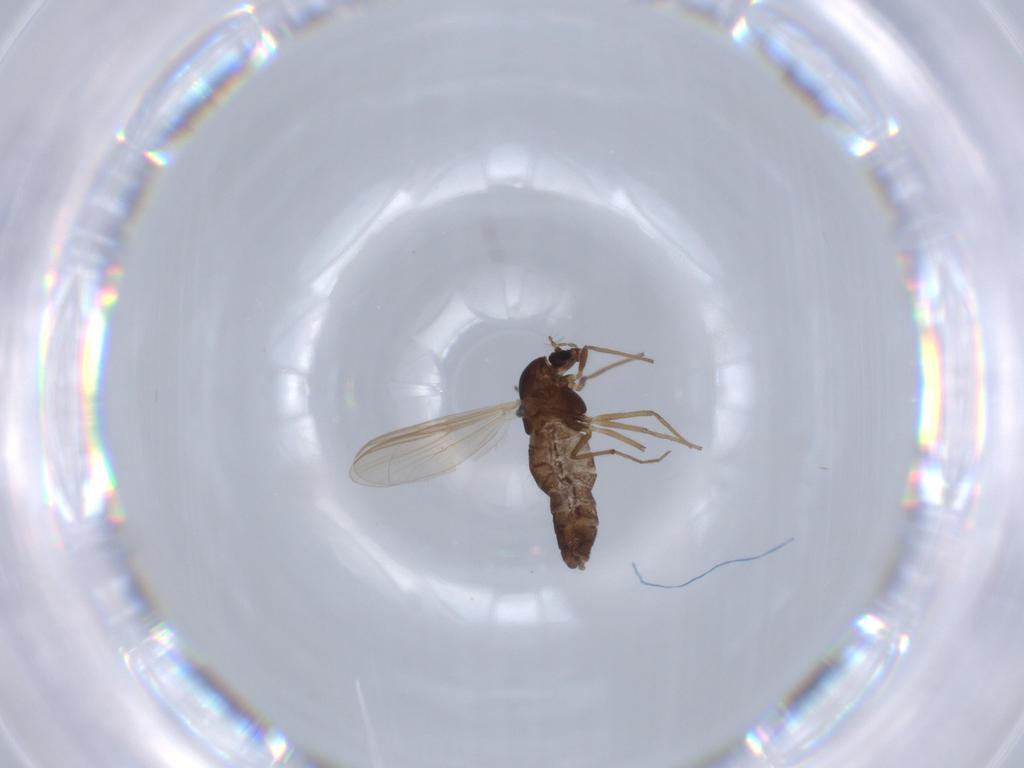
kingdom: Animalia
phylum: Arthropoda
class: Insecta
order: Diptera
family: Chironomidae
